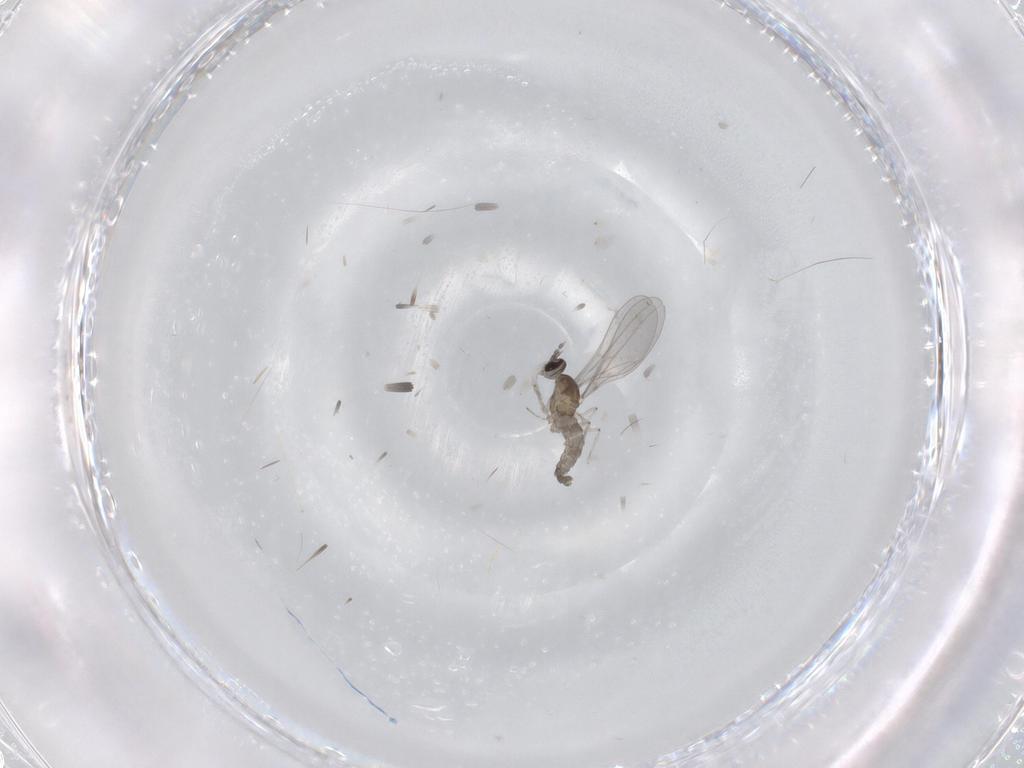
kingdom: Animalia
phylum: Arthropoda
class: Insecta
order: Diptera
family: Cecidomyiidae
